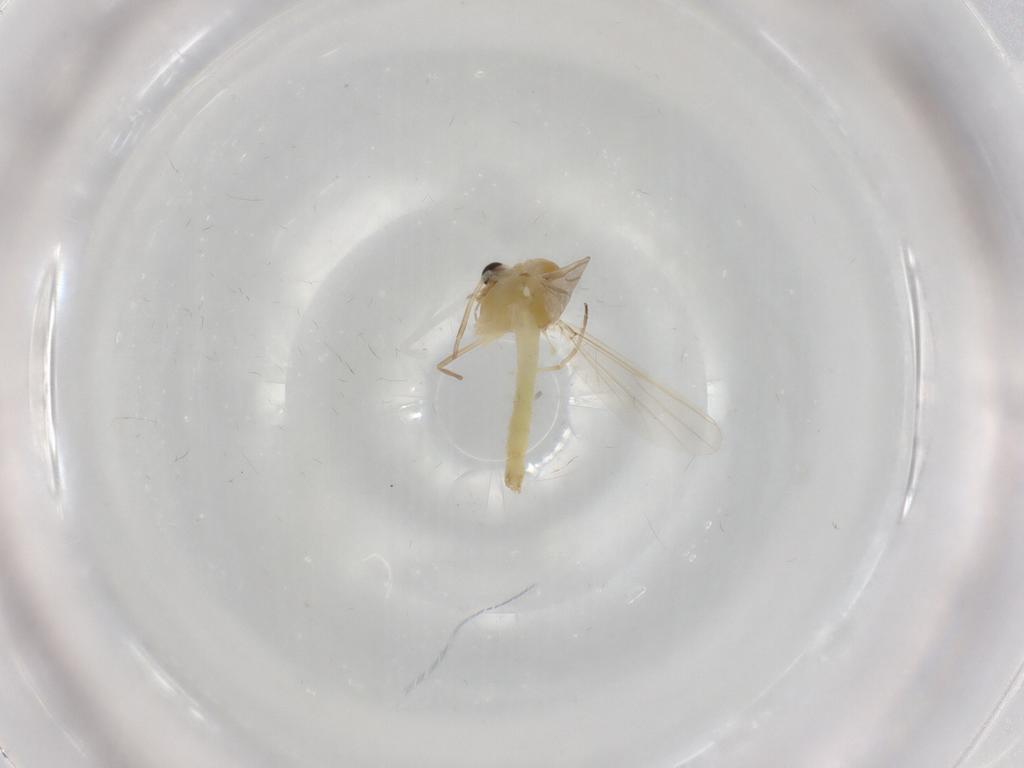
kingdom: Animalia
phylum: Arthropoda
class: Insecta
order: Diptera
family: Chironomidae
